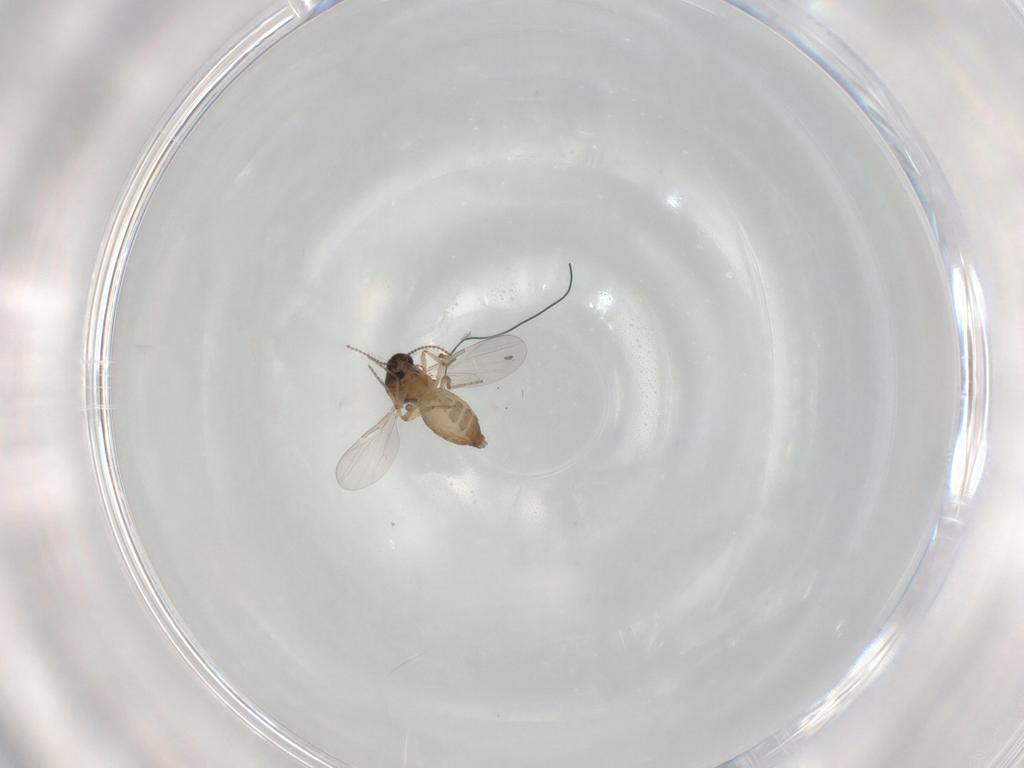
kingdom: Animalia
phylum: Arthropoda
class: Insecta
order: Diptera
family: Ceratopogonidae
